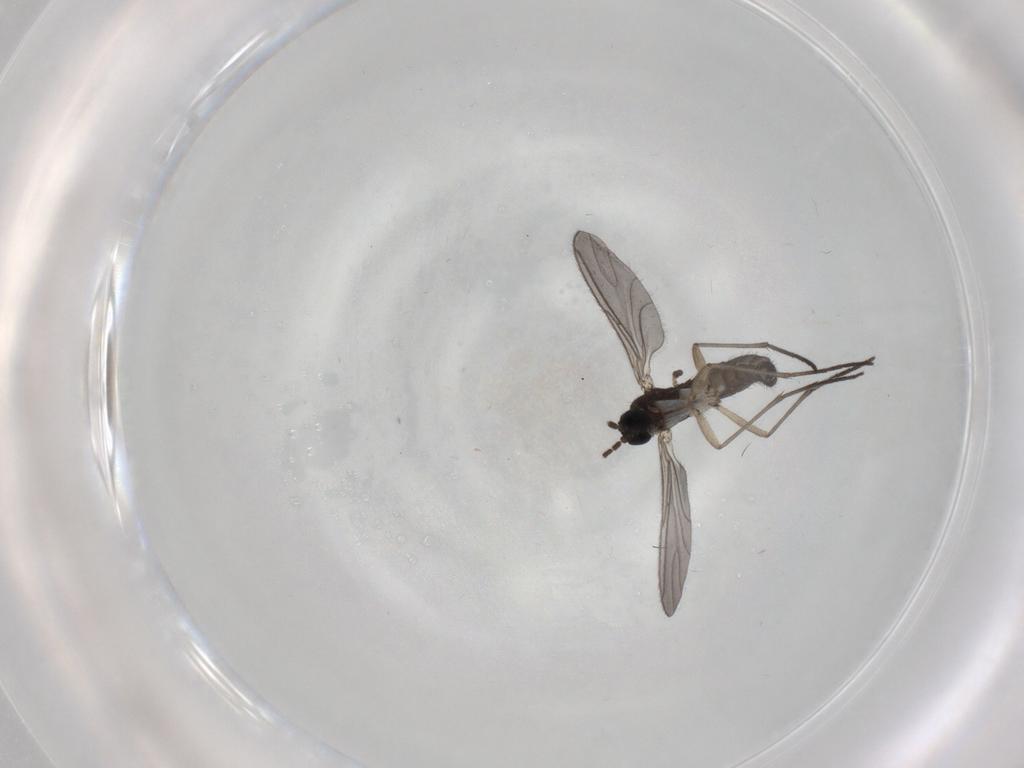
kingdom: Animalia
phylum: Arthropoda
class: Insecta
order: Diptera
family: Sciaridae
